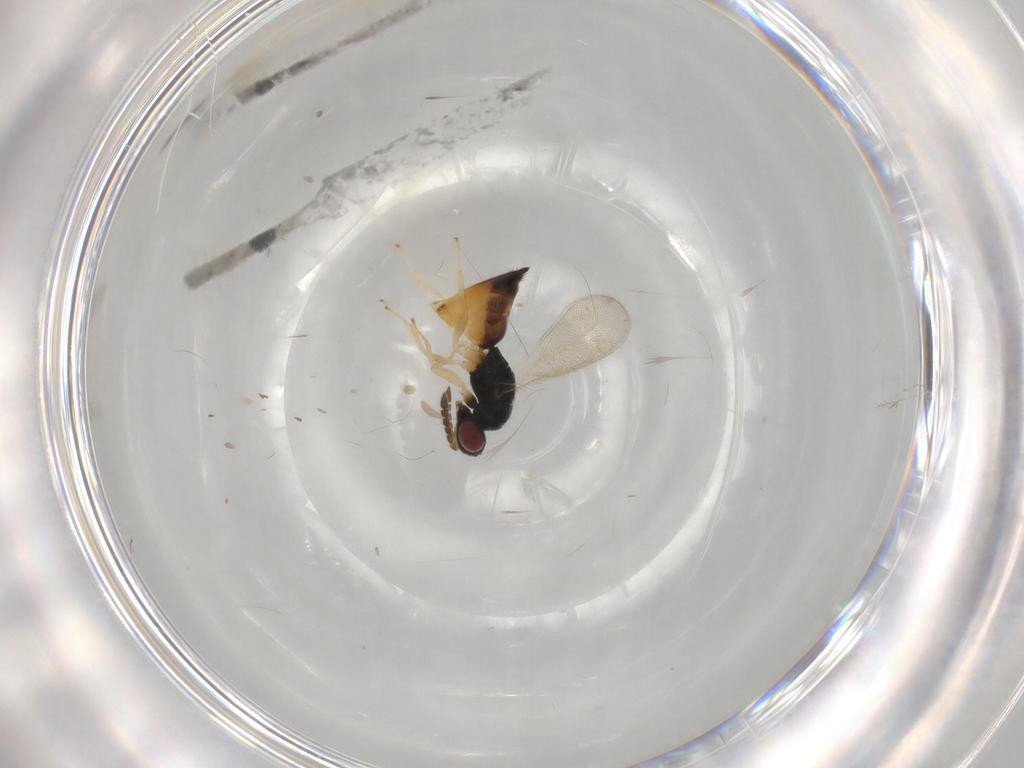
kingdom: Animalia
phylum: Arthropoda
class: Insecta
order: Hymenoptera
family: Eulophidae
